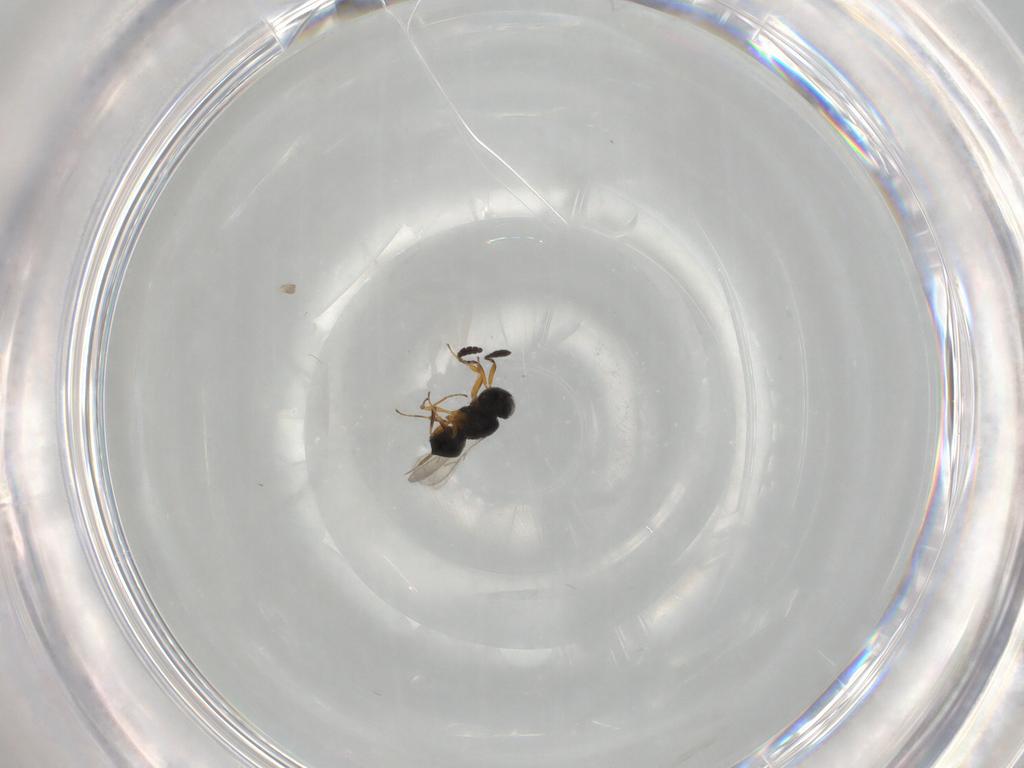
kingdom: Animalia
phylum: Arthropoda
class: Insecta
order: Hymenoptera
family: Scelionidae
